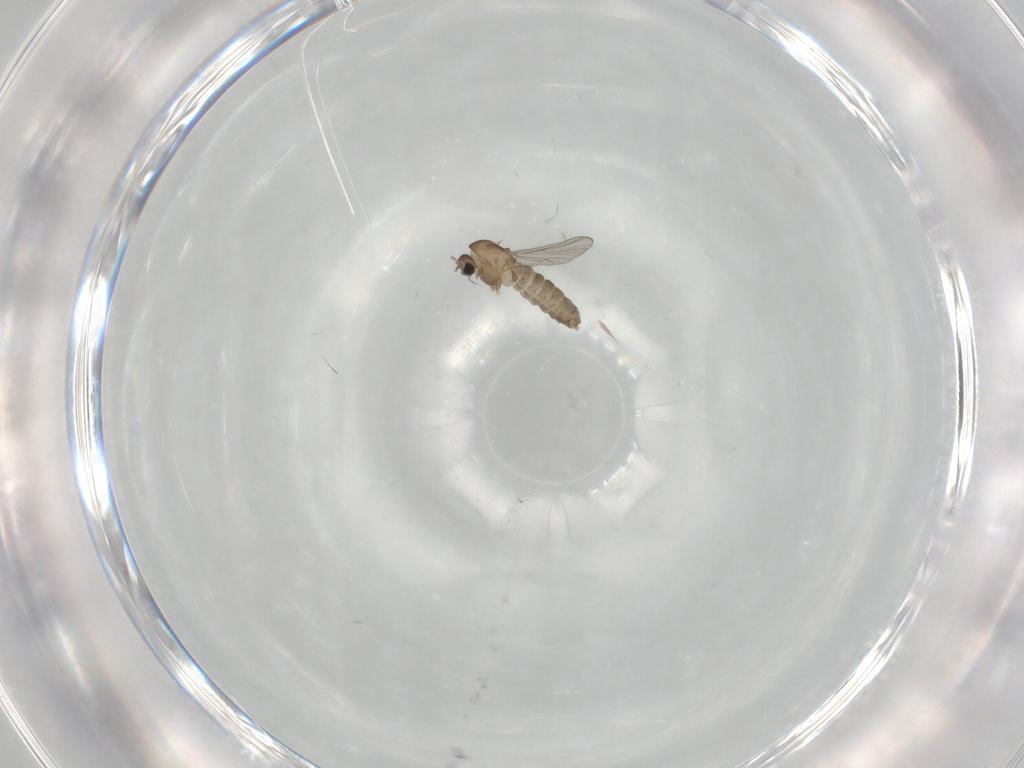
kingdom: Animalia
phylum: Arthropoda
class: Insecta
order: Diptera
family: Chironomidae
